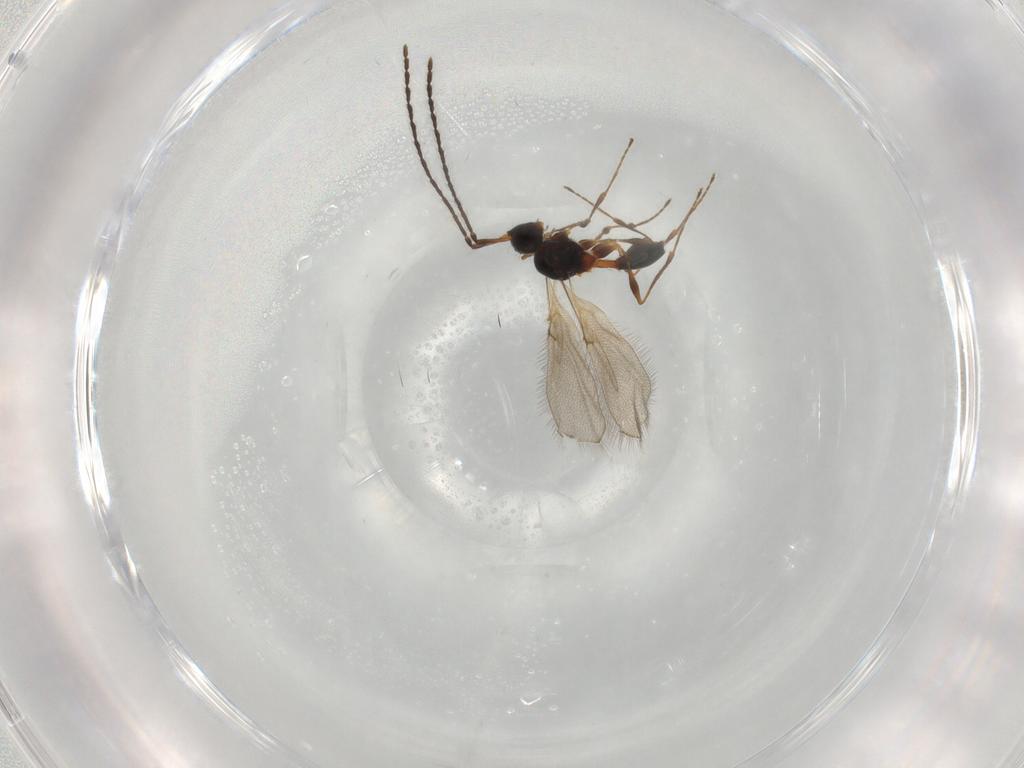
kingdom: Animalia
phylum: Arthropoda
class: Insecta
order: Hymenoptera
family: Diapriidae
